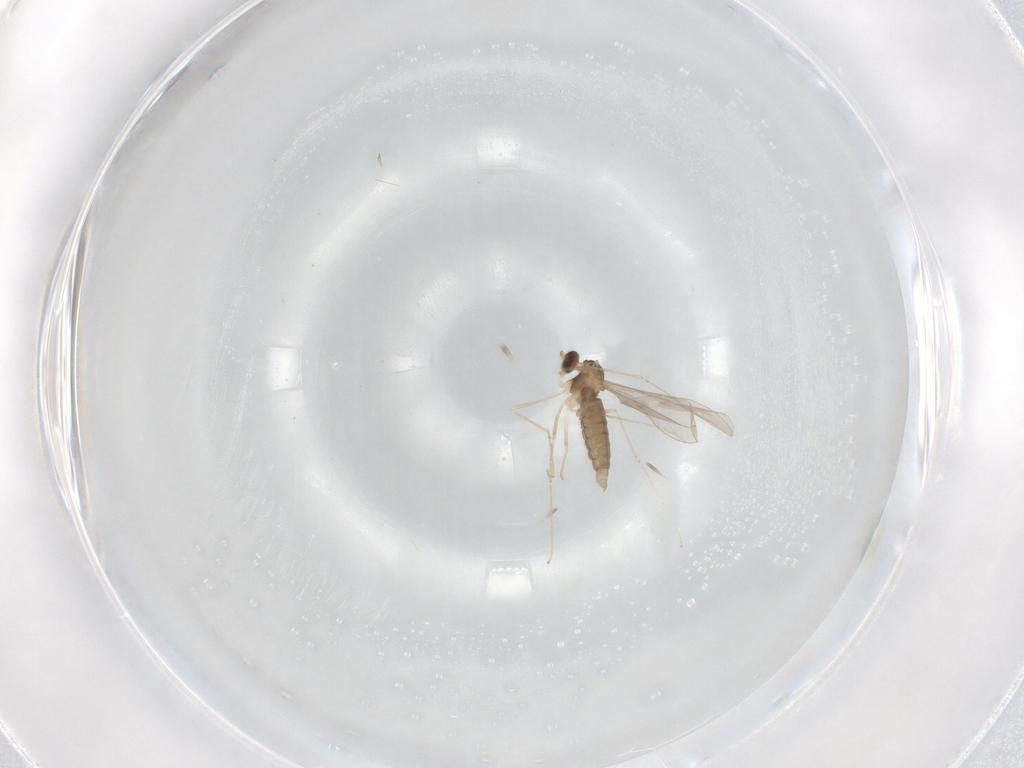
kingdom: Animalia
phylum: Arthropoda
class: Insecta
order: Diptera
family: Cecidomyiidae
